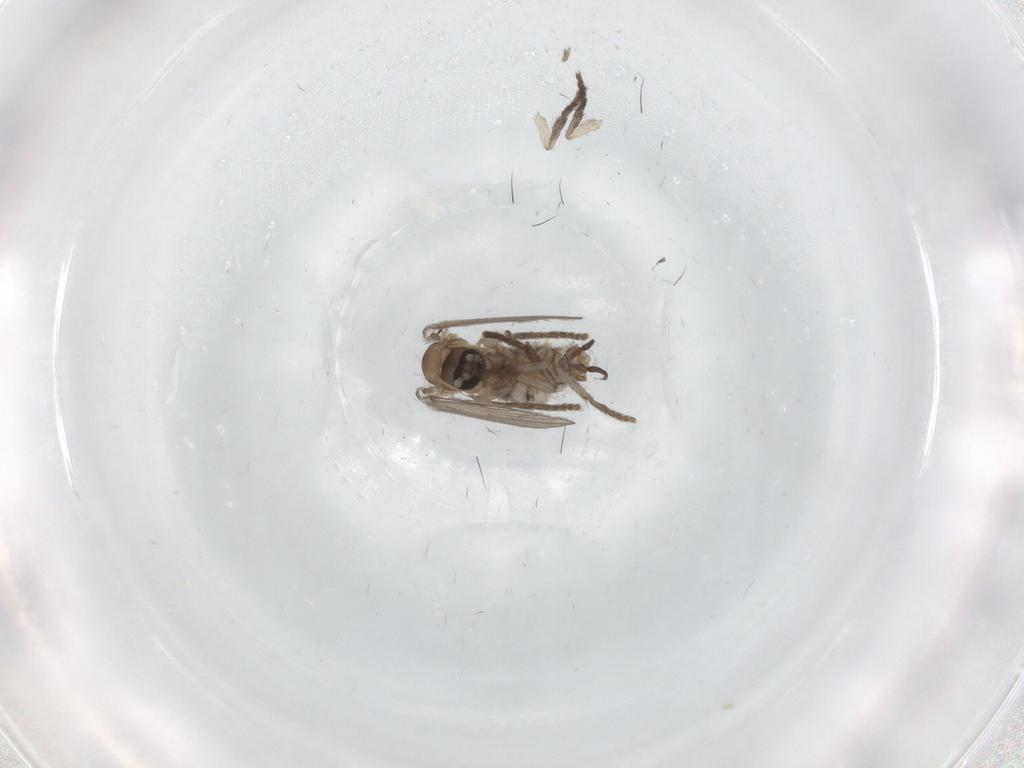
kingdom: Animalia
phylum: Arthropoda
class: Insecta
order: Diptera
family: Psychodidae
